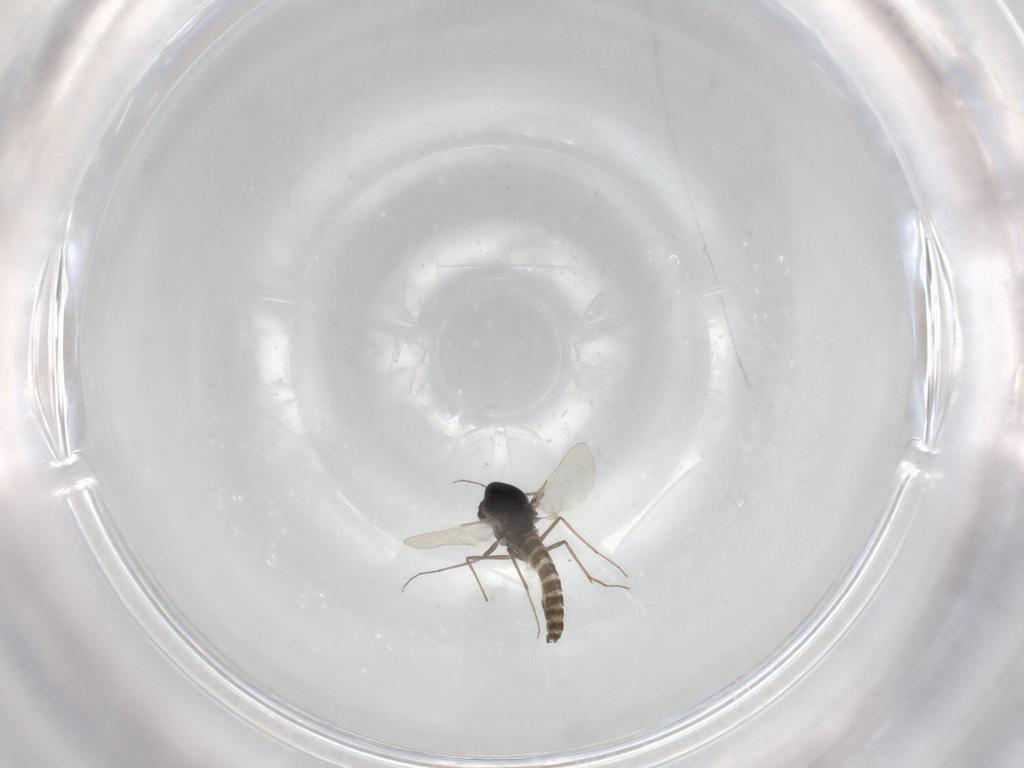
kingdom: Animalia
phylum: Arthropoda
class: Insecta
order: Diptera
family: Chironomidae
